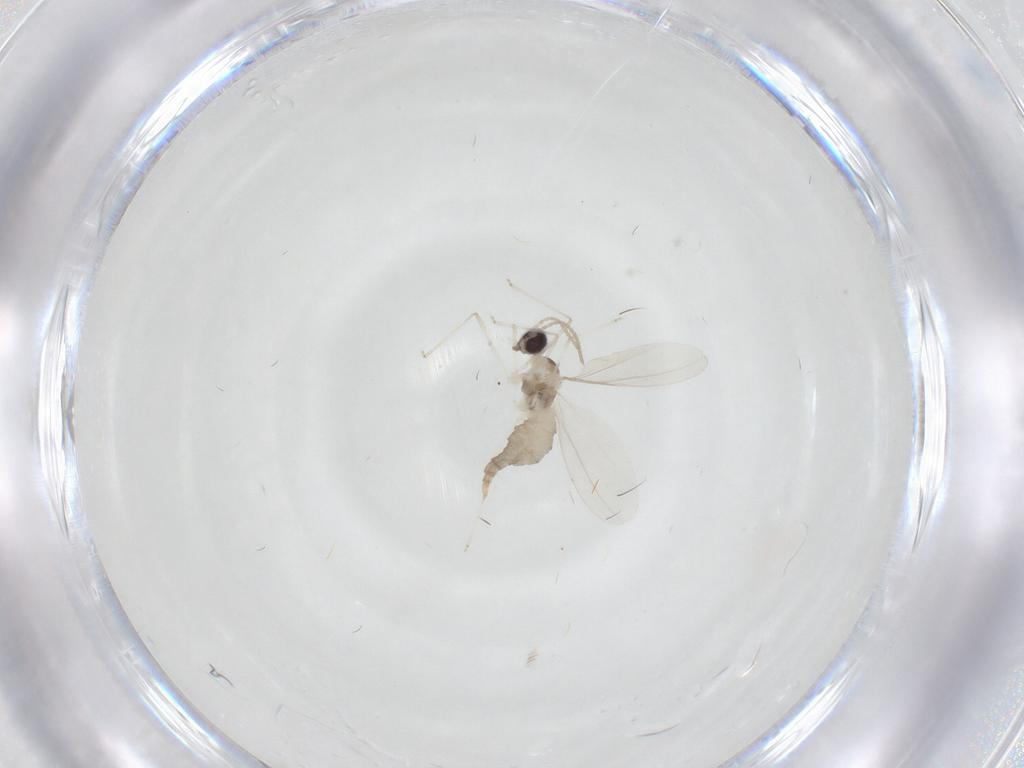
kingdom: Animalia
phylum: Arthropoda
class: Insecta
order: Diptera
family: Cecidomyiidae
